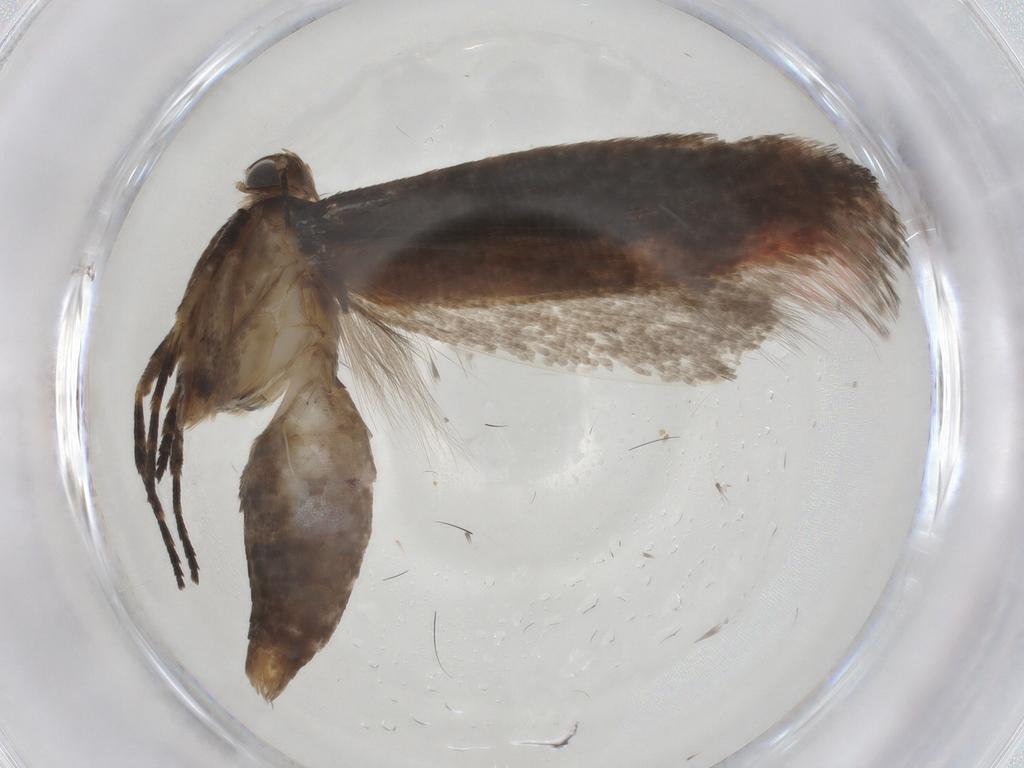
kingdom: Animalia
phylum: Arthropoda
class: Insecta
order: Lepidoptera
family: Gelechiidae
